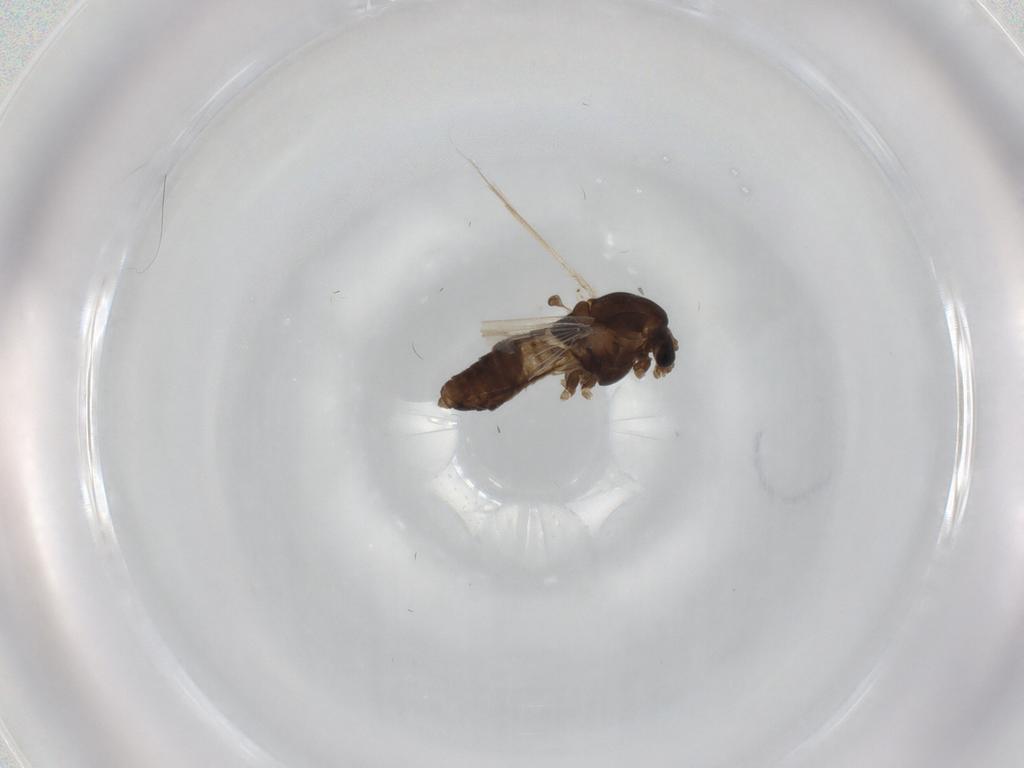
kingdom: Animalia
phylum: Arthropoda
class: Insecta
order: Diptera
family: Chironomidae
